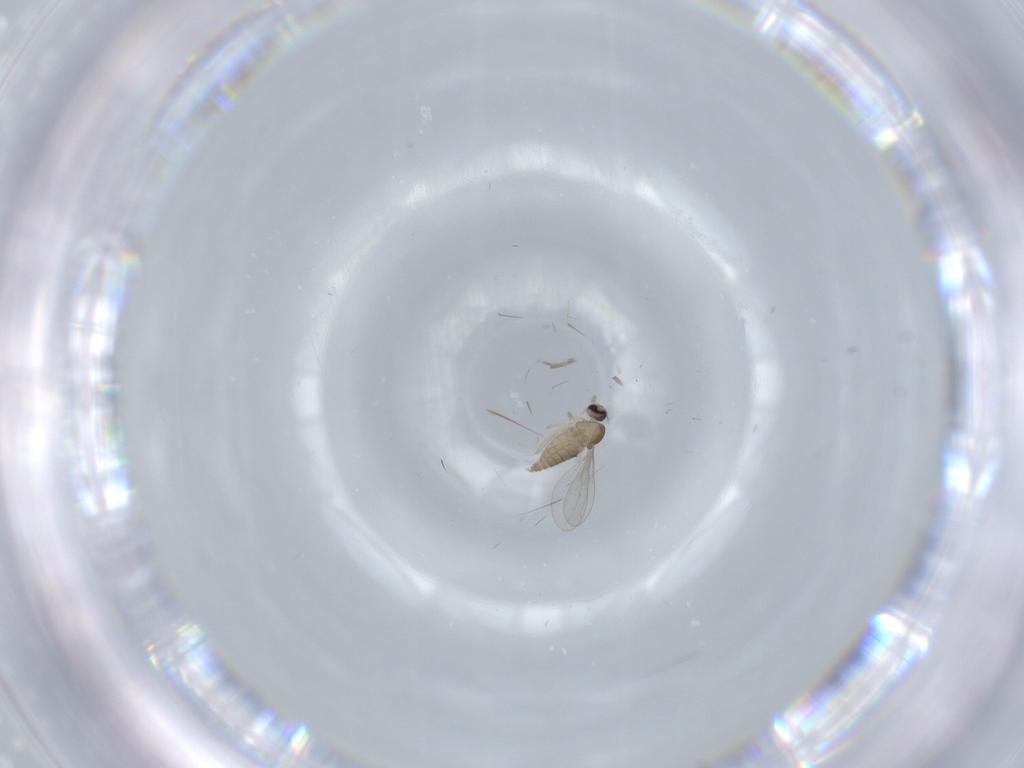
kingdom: Animalia
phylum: Arthropoda
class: Insecta
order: Diptera
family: Cecidomyiidae
